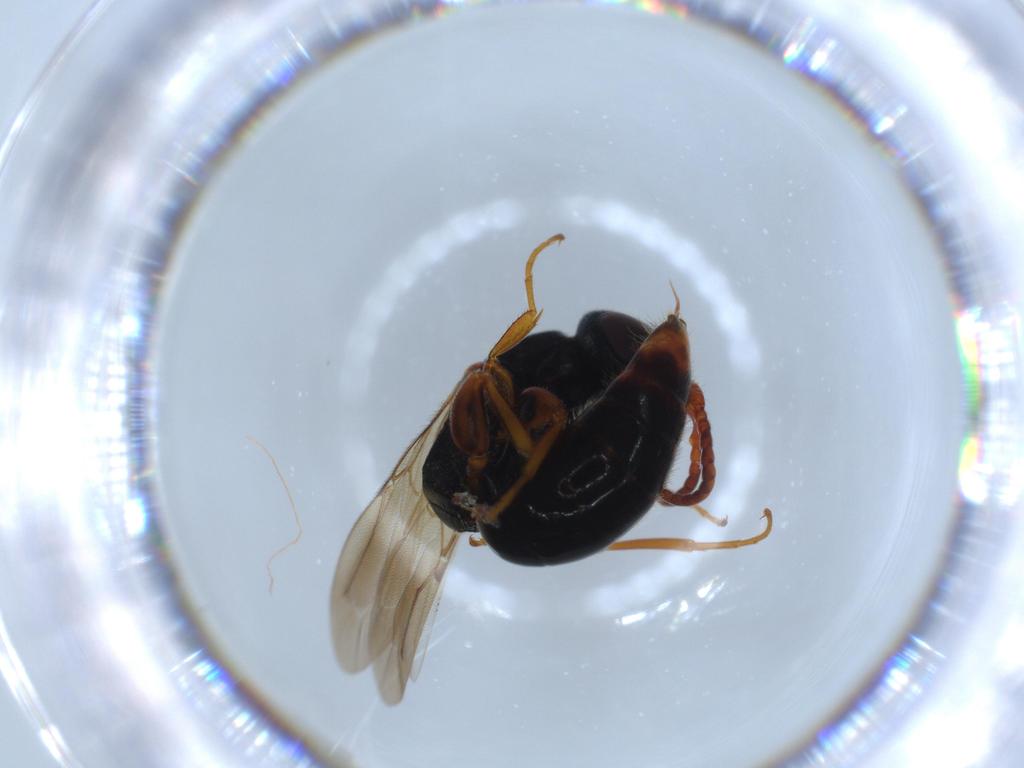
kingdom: Animalia
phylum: Arthropoda
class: Insecta
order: Hymenoptera
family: Bethylidae
